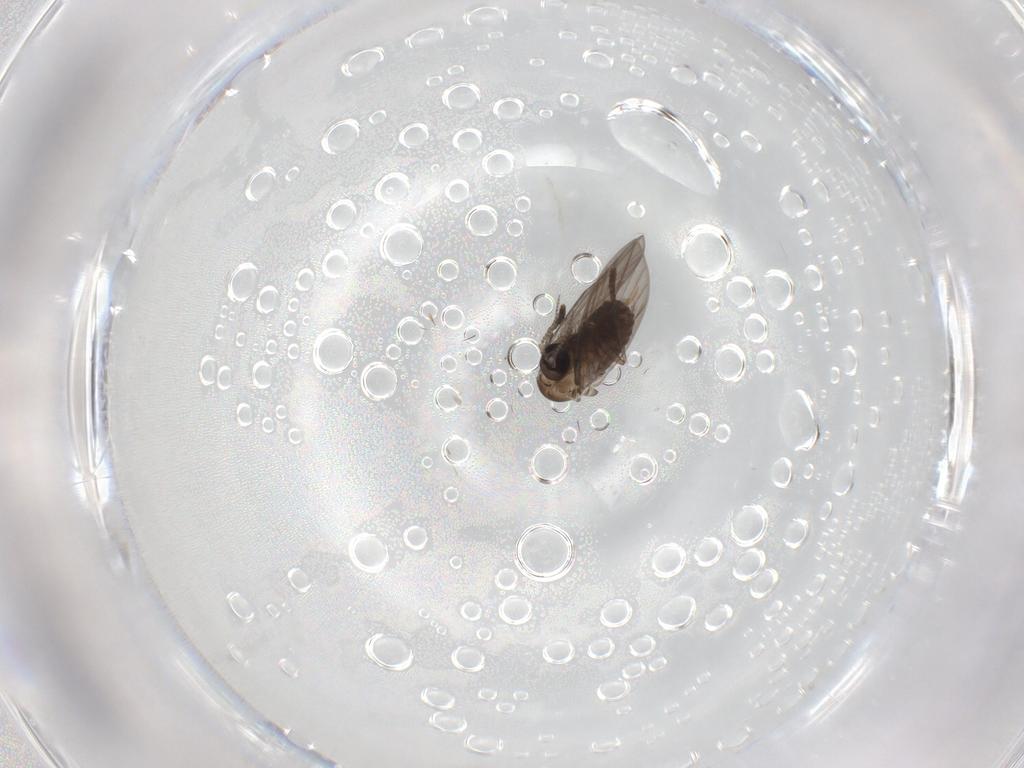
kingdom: Animalia
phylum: Arthropoda
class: Insecta
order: Diptera
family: Psychodidae
